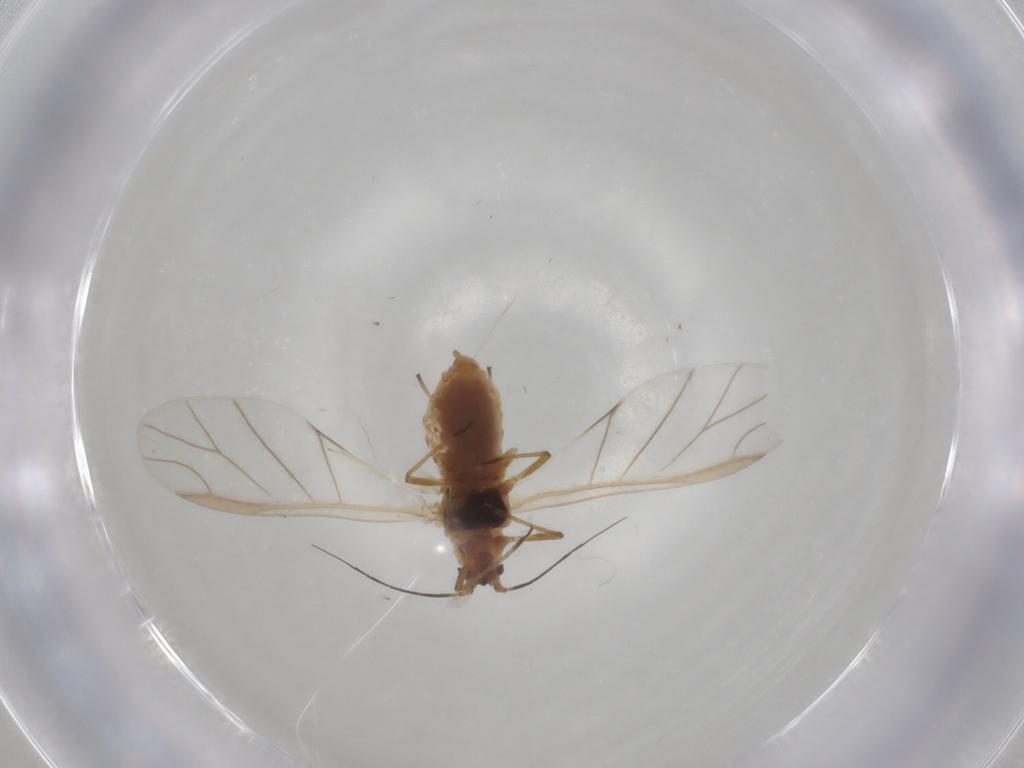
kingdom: Animalia
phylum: Arthropoda
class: Insecta
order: Hemiptera
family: Aphididae
